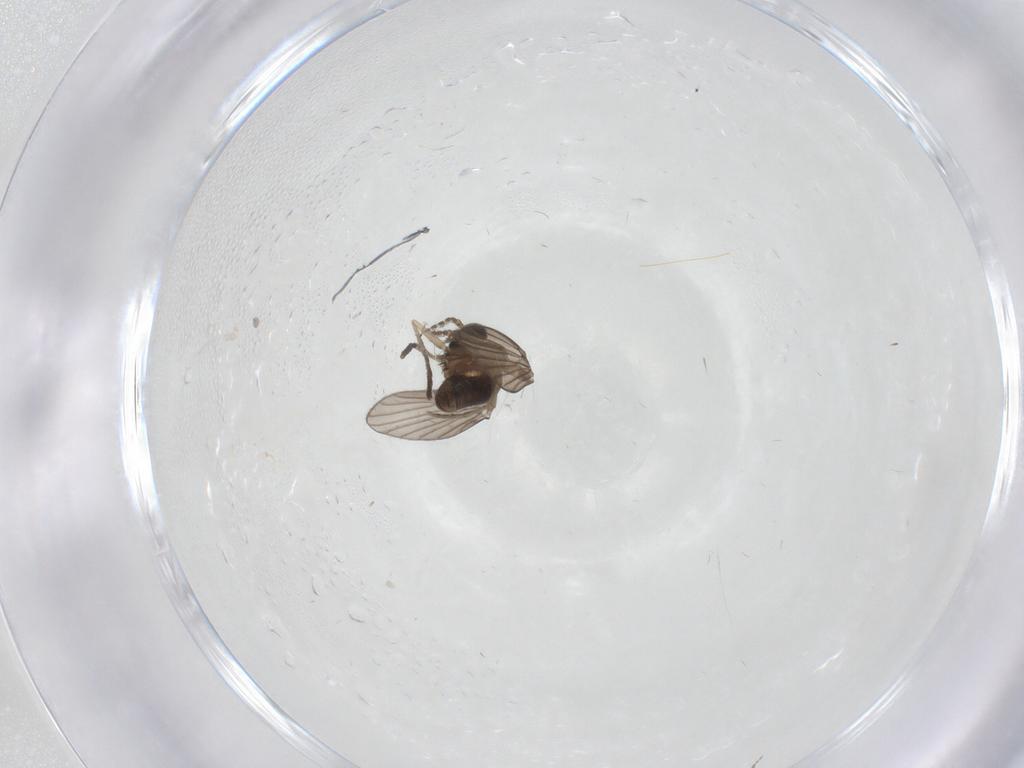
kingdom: Animalia
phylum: Arthropoda
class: Insecta
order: Diptera
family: Psychodidae
